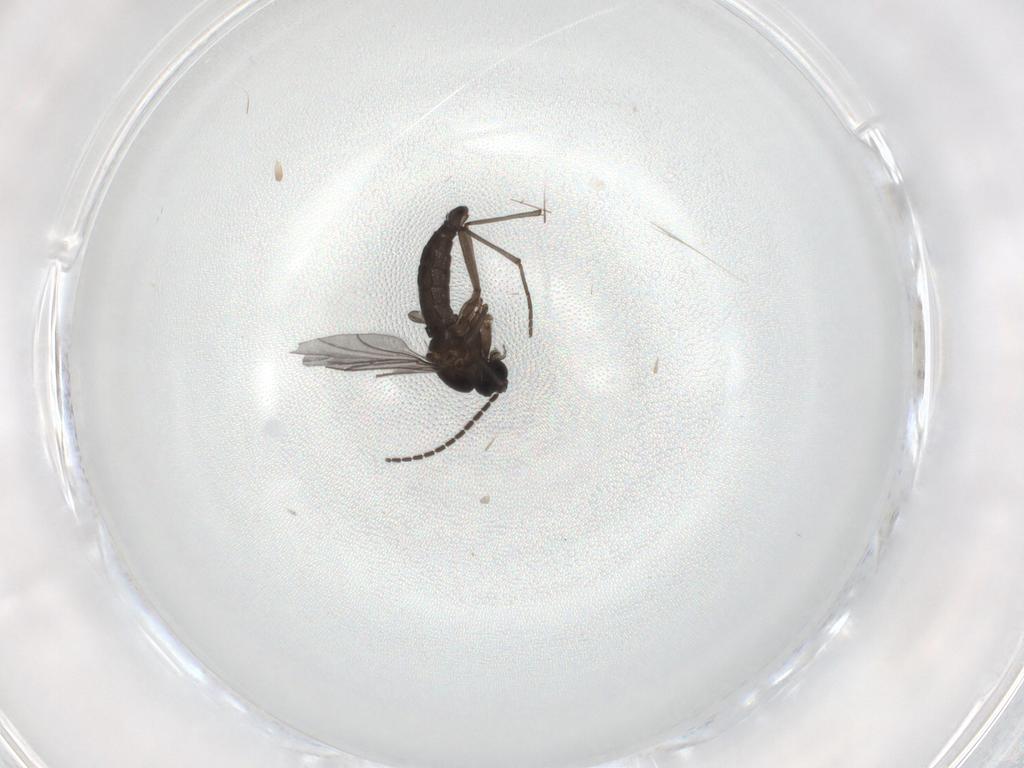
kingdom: Animalia
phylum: Arthropoda
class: Insecta
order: Diptera
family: Sciaridae
